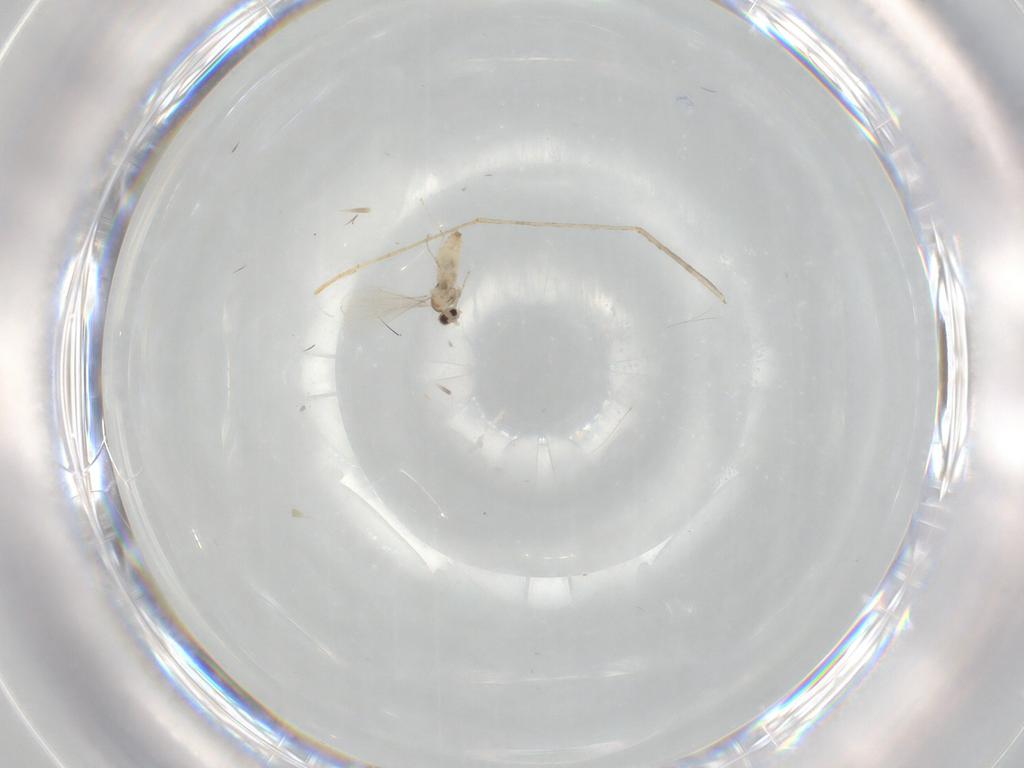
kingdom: Animalia
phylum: Arthropoda
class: Insecta
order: Diptera
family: Cecidomyiidae
